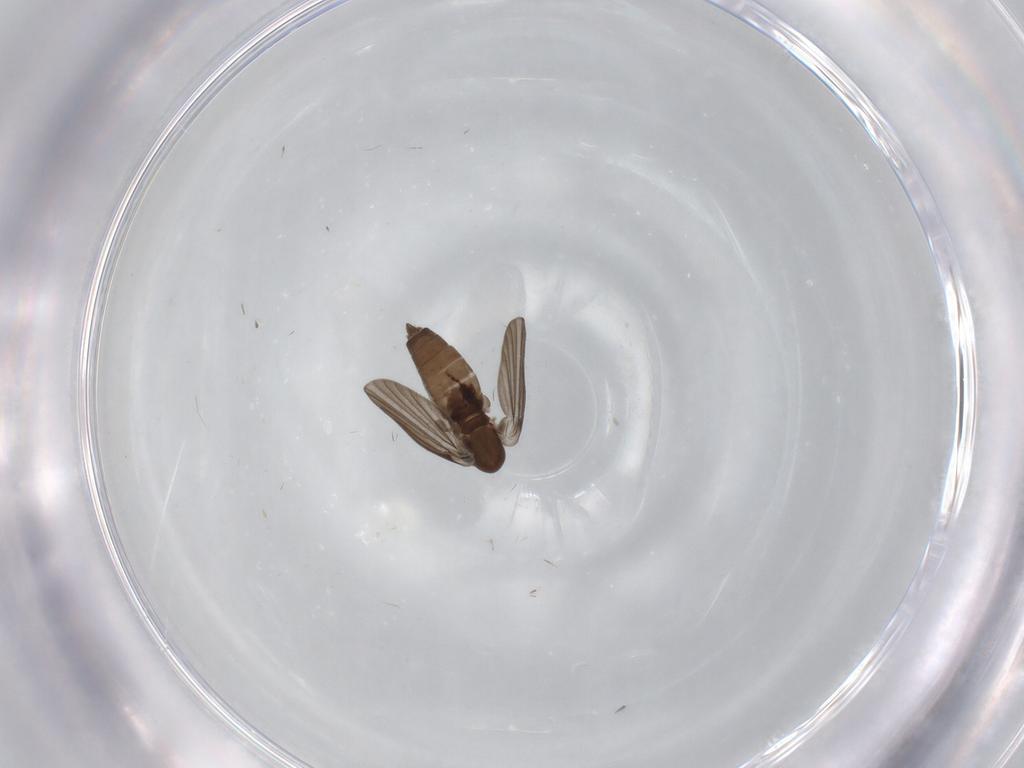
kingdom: Animalia
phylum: Arthropoda
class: Insecta
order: Diptera
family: Cecidomyiidae
